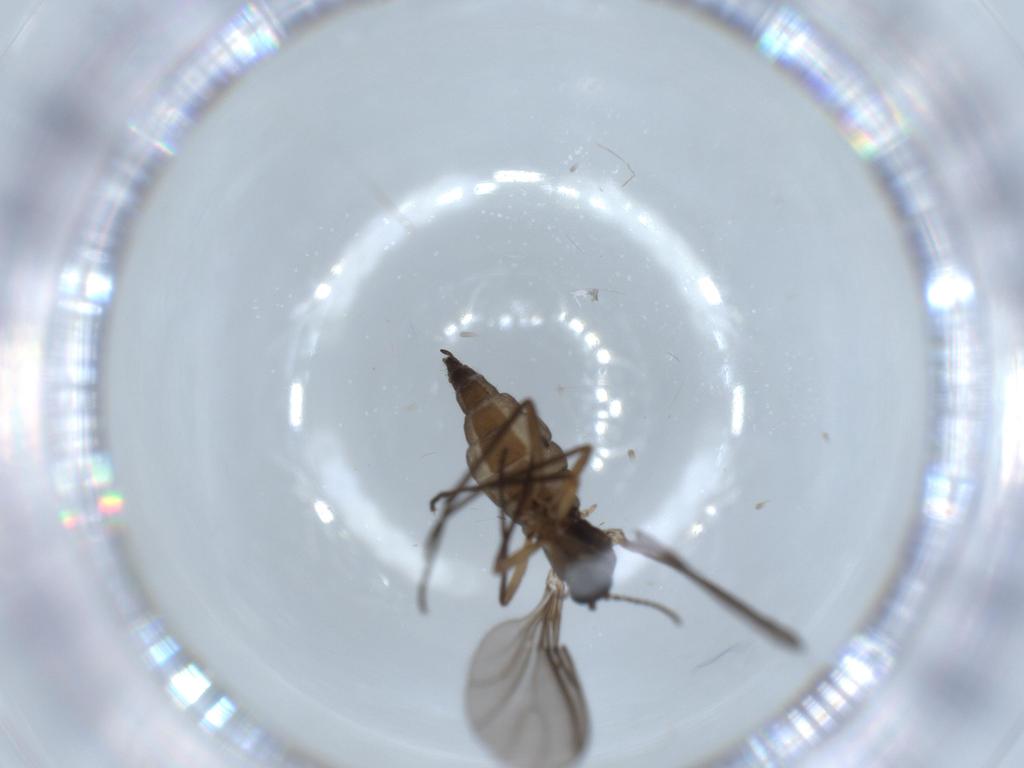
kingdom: Animalia
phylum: Arthropoda
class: Insecta
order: Diptera
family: Sciaridae
